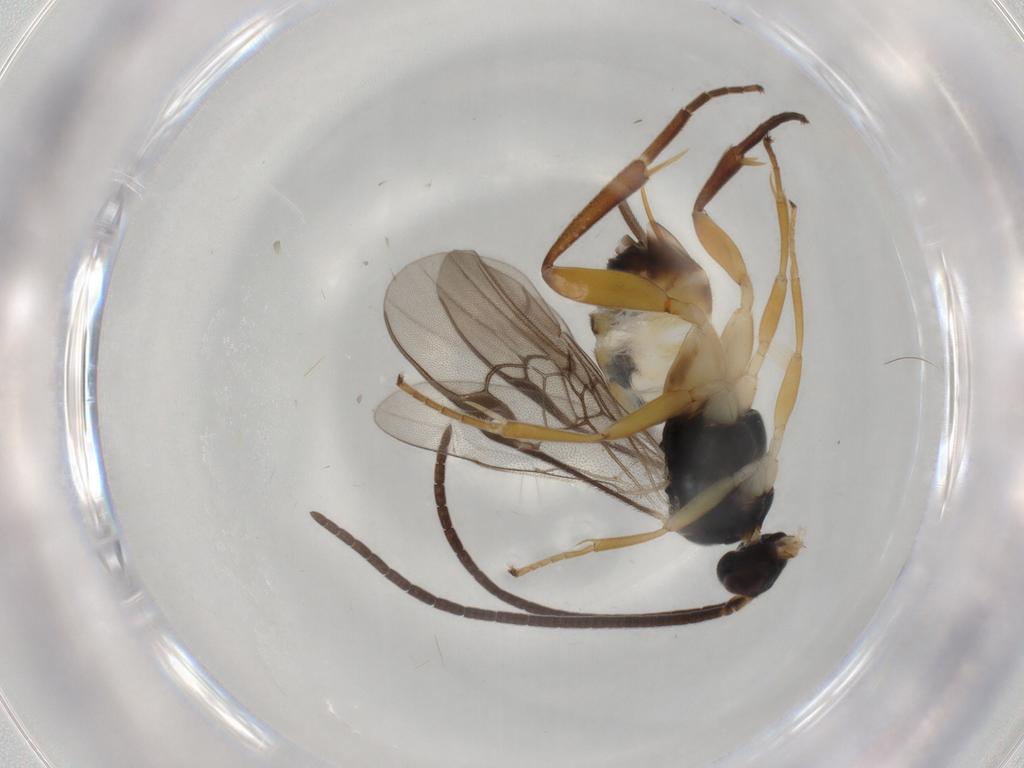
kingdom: Animalia
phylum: Arthropoda
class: Insecta
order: Hymenoptera
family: Braconidae
